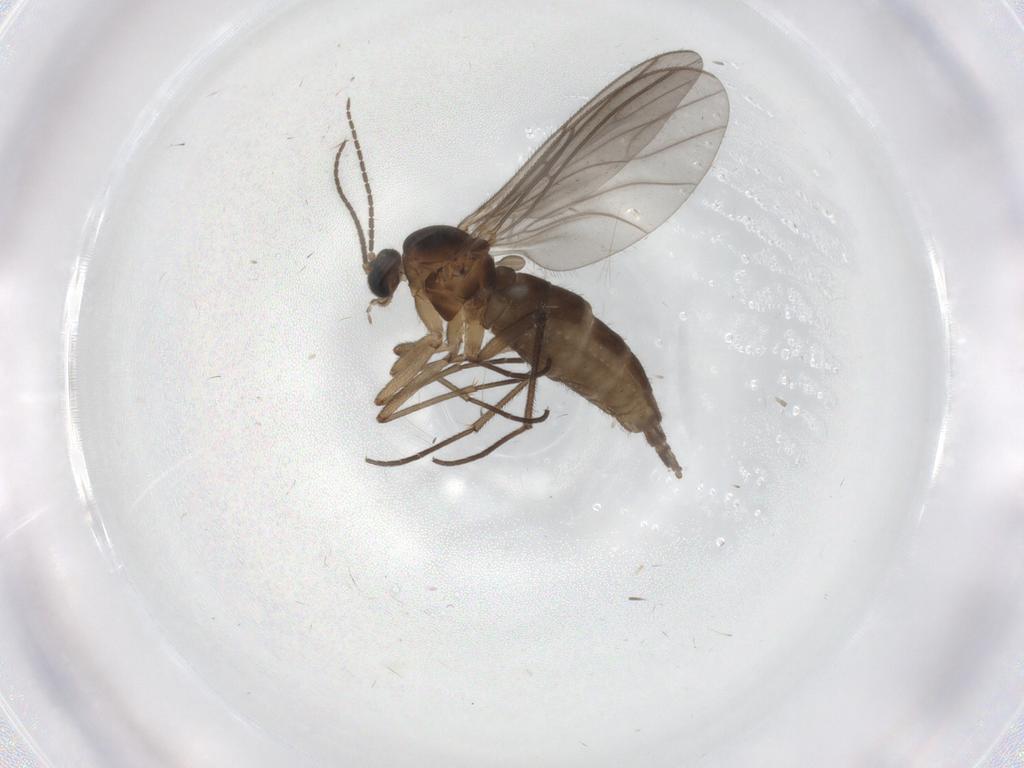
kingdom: Animalia
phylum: Arthropoda
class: Insecta
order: Diptera
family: Chironomidae
